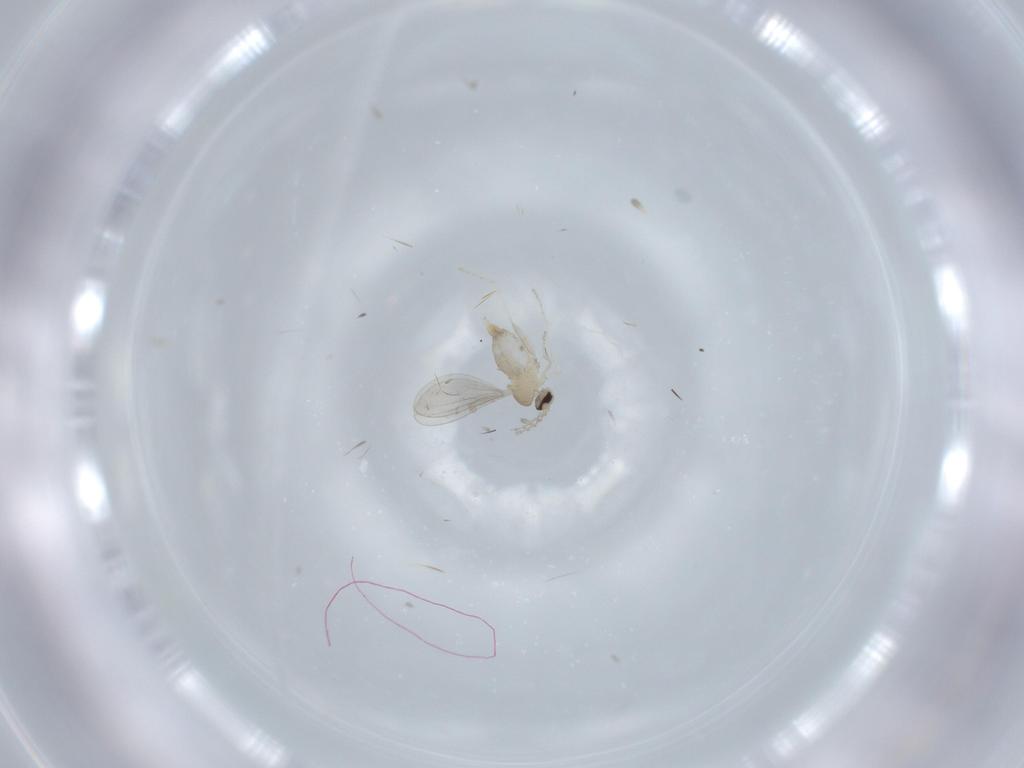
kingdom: Animalia
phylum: Arthropoda
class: Insecta
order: Diptera
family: Cecidomyiidae
